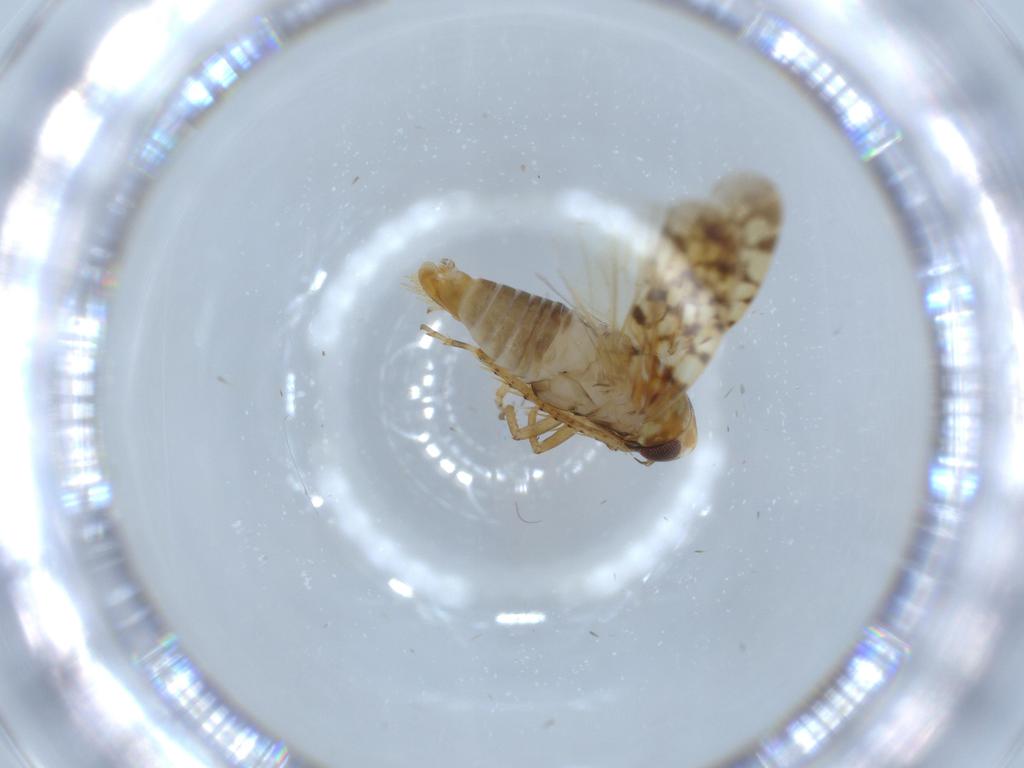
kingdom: Animalia
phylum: Arthropoda
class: Insecta
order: Hemiptera
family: Cicadellidae
